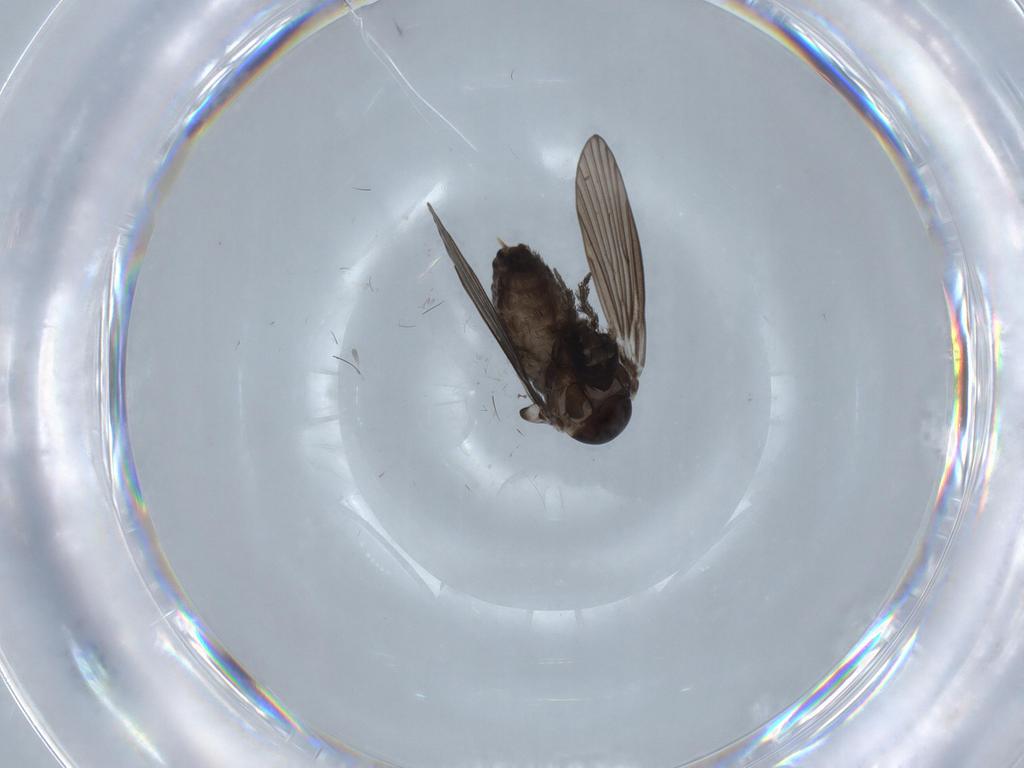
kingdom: Animalia
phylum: Arthropoda
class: Insecta
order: Diptera
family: Psychodidae
